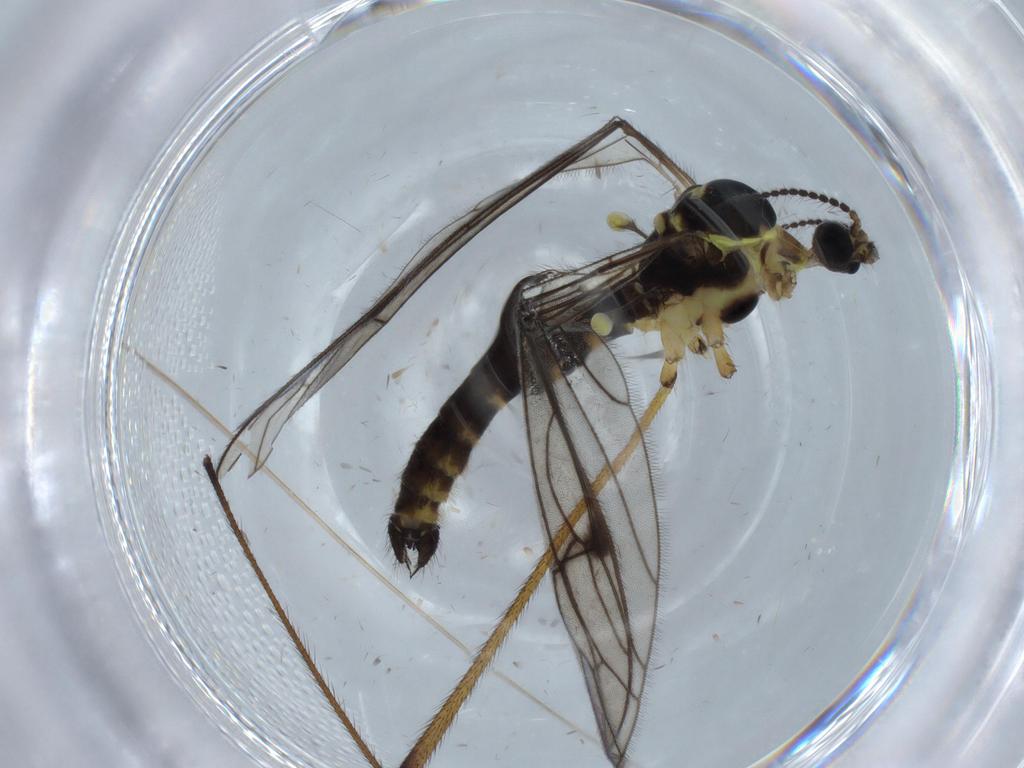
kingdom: Animalia
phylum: Arthropoda
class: Insecta
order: Diptera
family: Limoniidae
